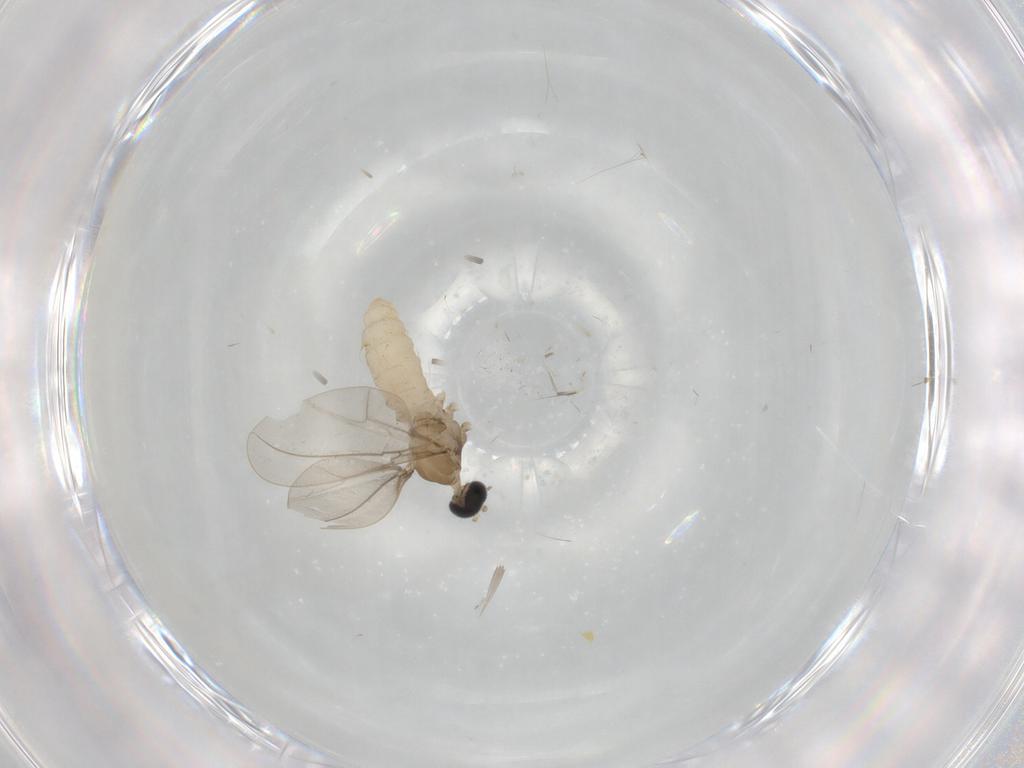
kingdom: Animalia
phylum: Arthropoda
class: Insecta
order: Diptera
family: Cecidomyiidae
